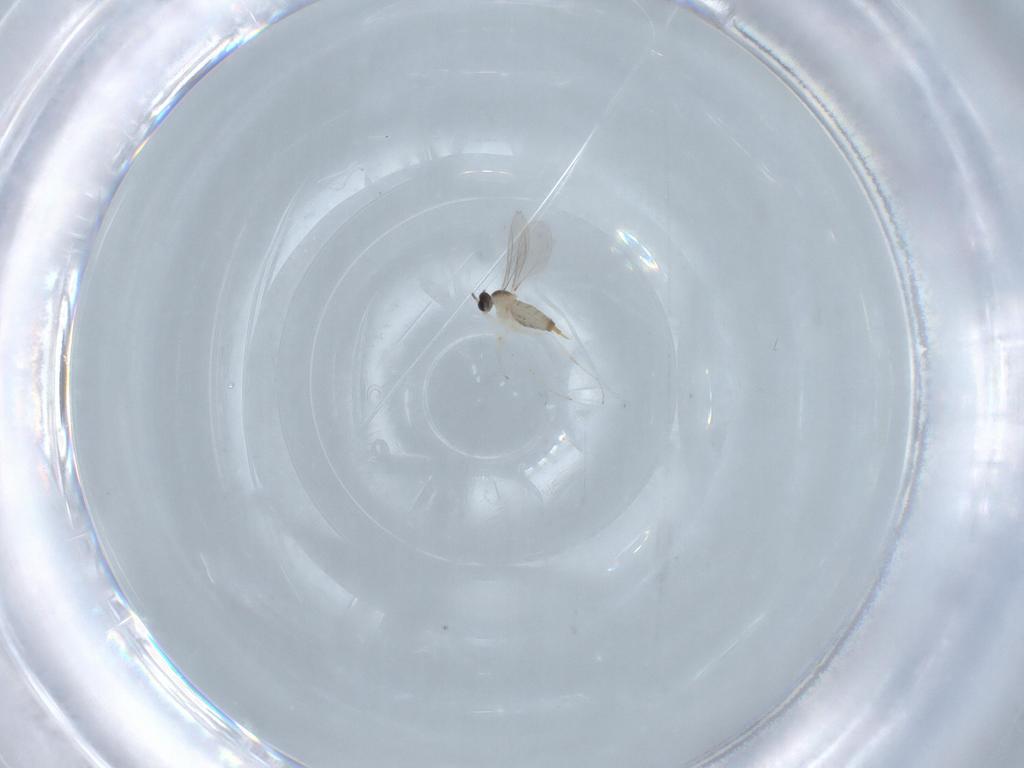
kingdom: Animalia
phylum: Arthropoda
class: Insecta
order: Diptera
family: Cecidomyiidae
